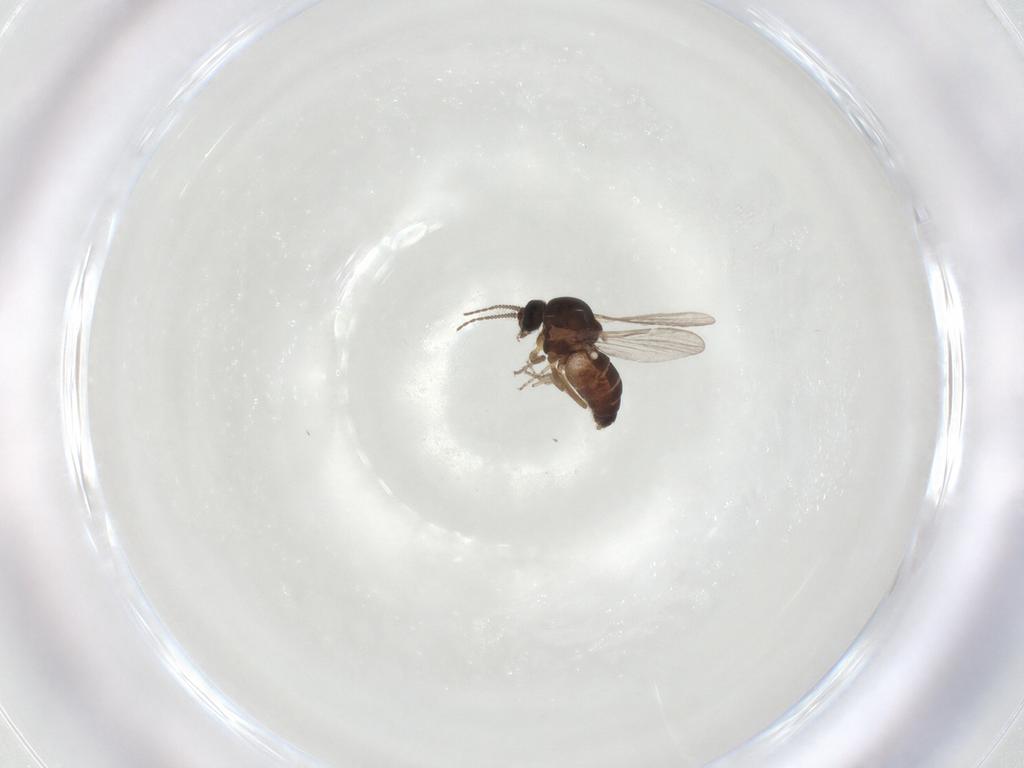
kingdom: Animalia
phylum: Arthropoda
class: Insecta
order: Diptera
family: Ceratopogonidae
